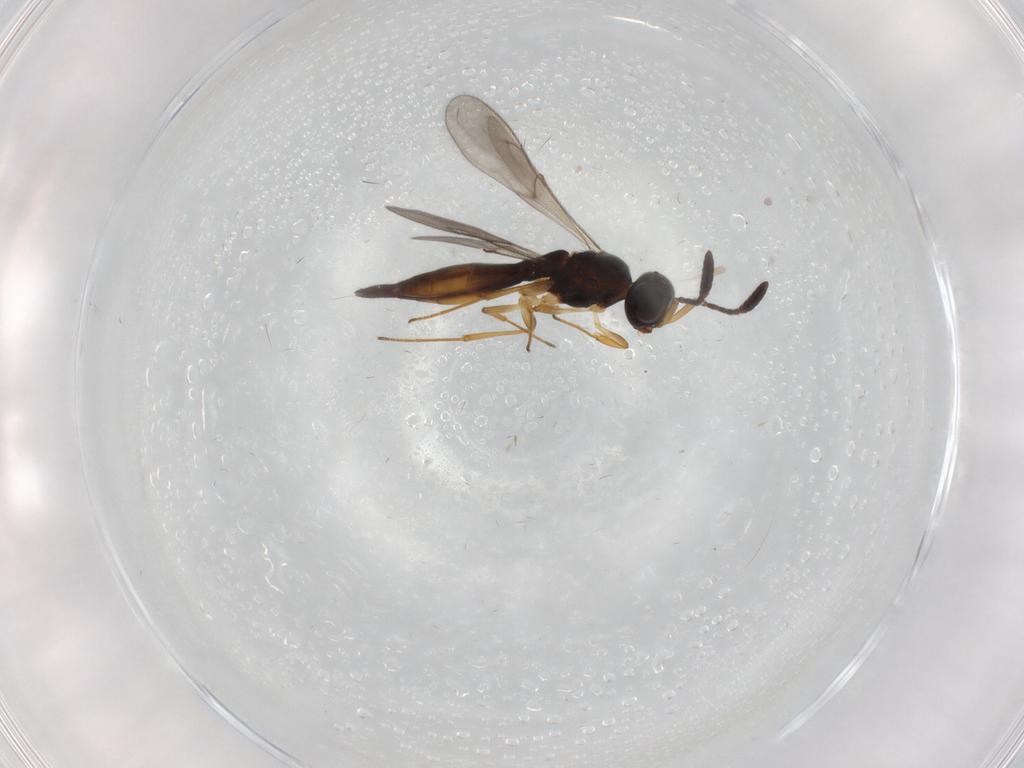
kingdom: Animalia
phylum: Arthropoda
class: Insecta
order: Hymenoptera
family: Scelionidae
